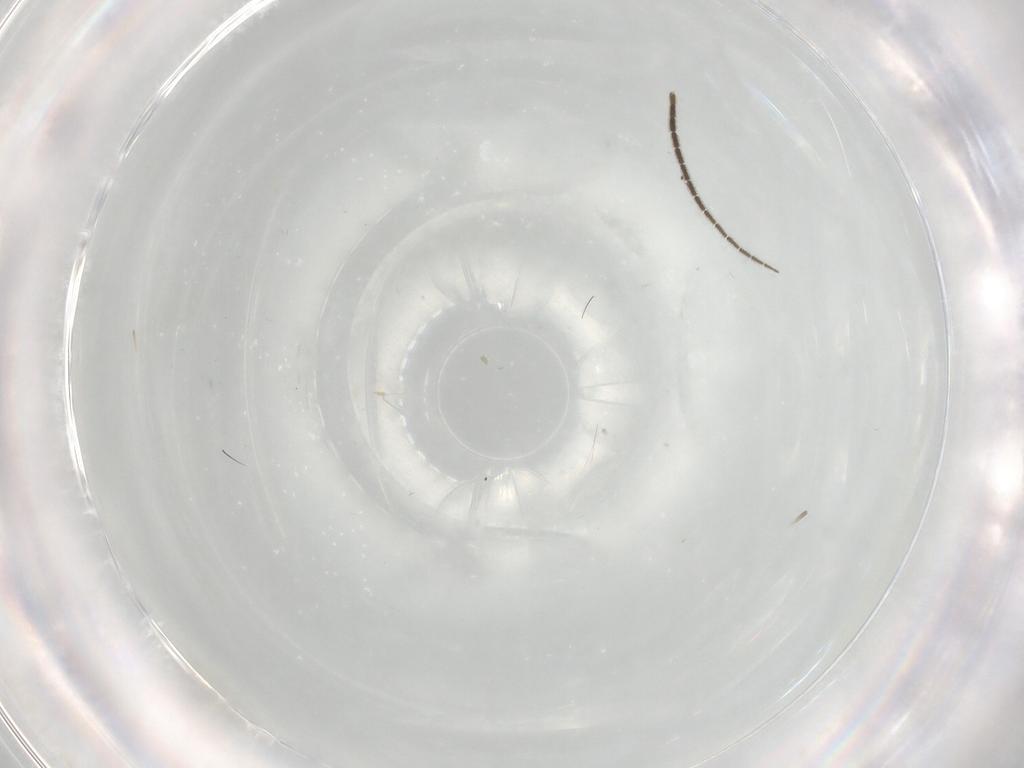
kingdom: Animalia
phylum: Arthropoda
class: Insecta
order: Diptera
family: Sciaridae
